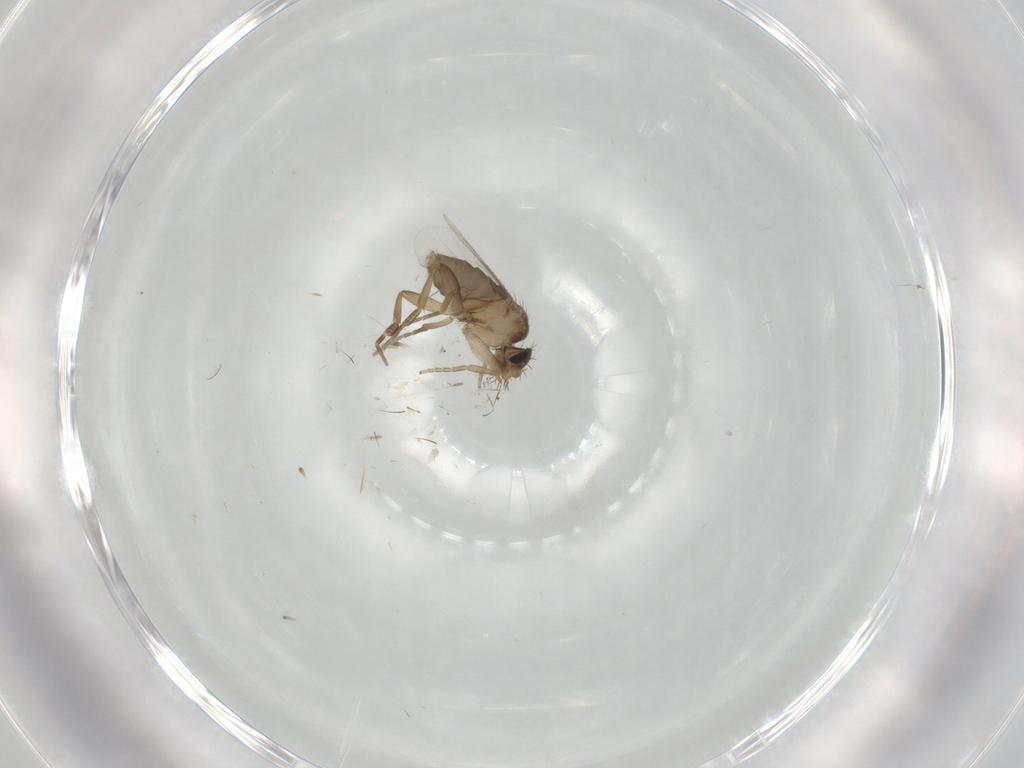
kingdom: Animalia
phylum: Arthropoda
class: Insecta
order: Diptera
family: Phoridae
